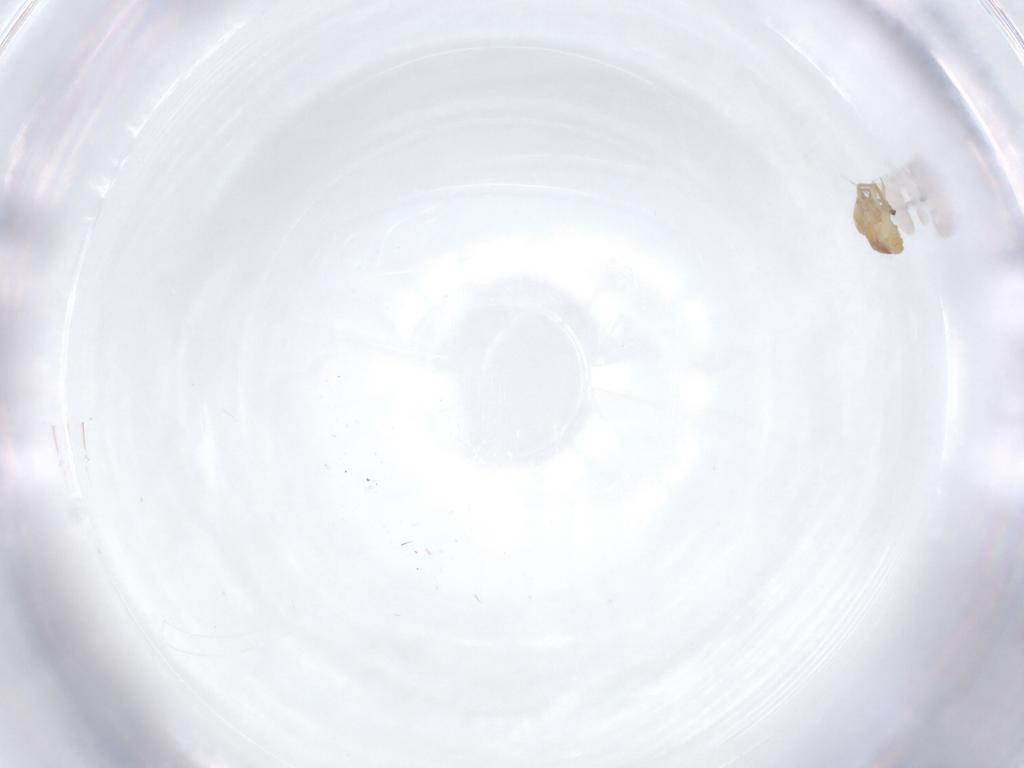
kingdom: Animalia
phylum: Arthropoda
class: Collembola
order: Symphypleona
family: Bourletiellidae
